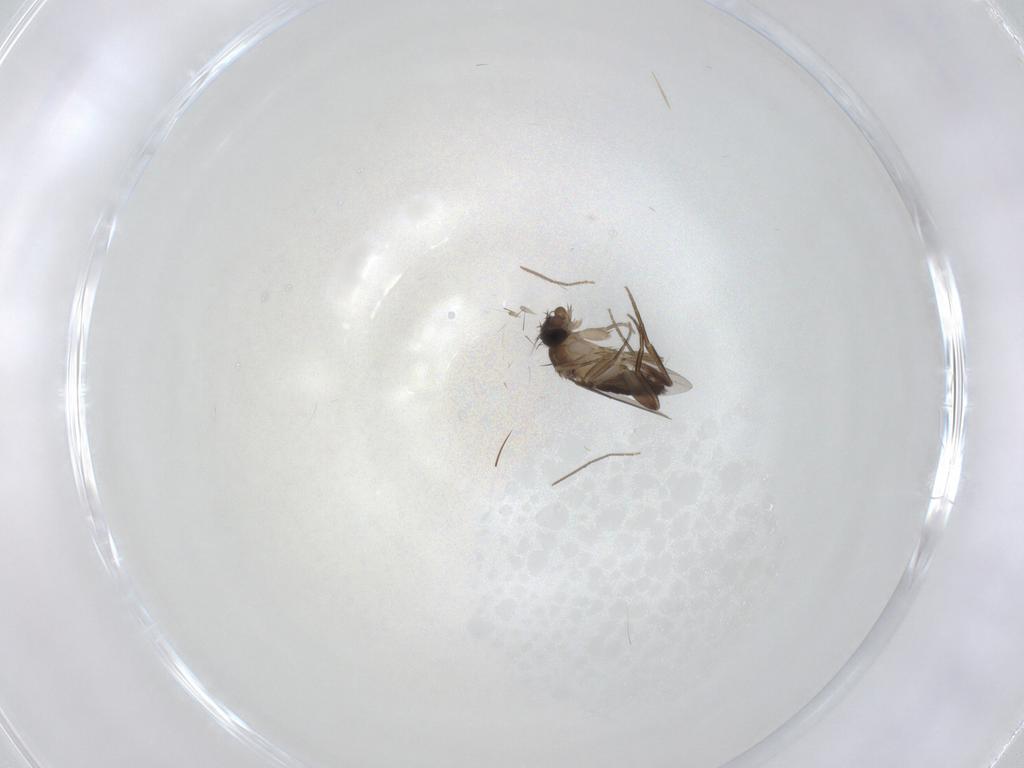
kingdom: Animalia
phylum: Arthropoda
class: Insecta
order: Diptera
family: Phoridae
